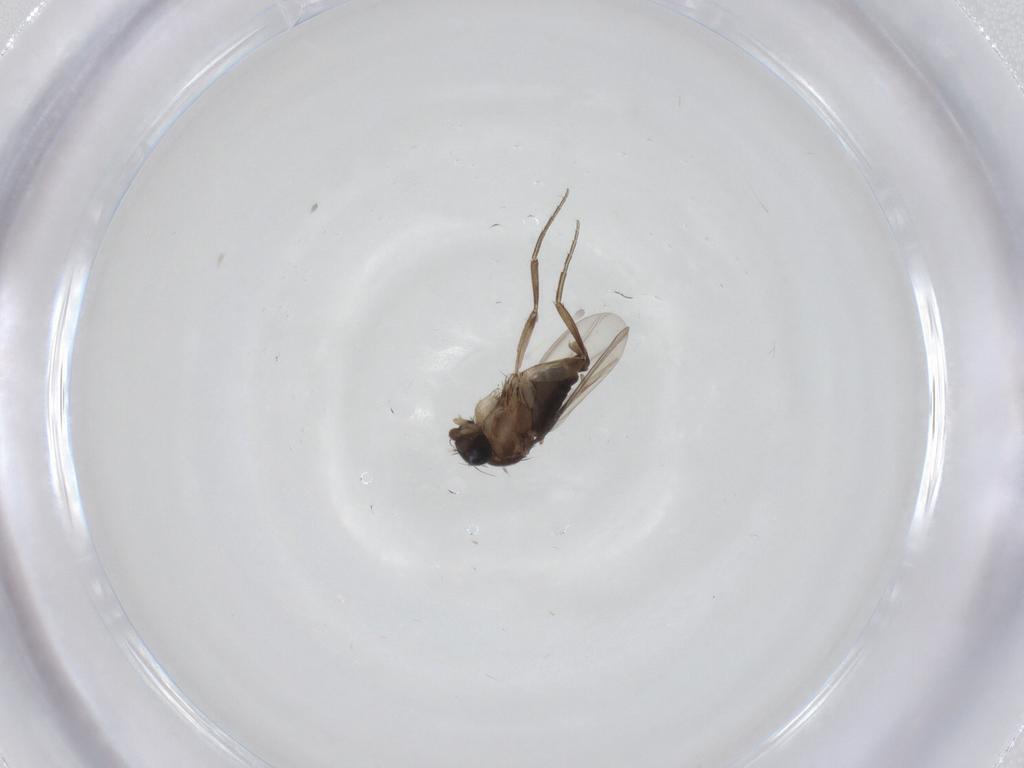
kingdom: Animalia
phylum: Arthropoda
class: Insecta
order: Diptera
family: Phoridae
